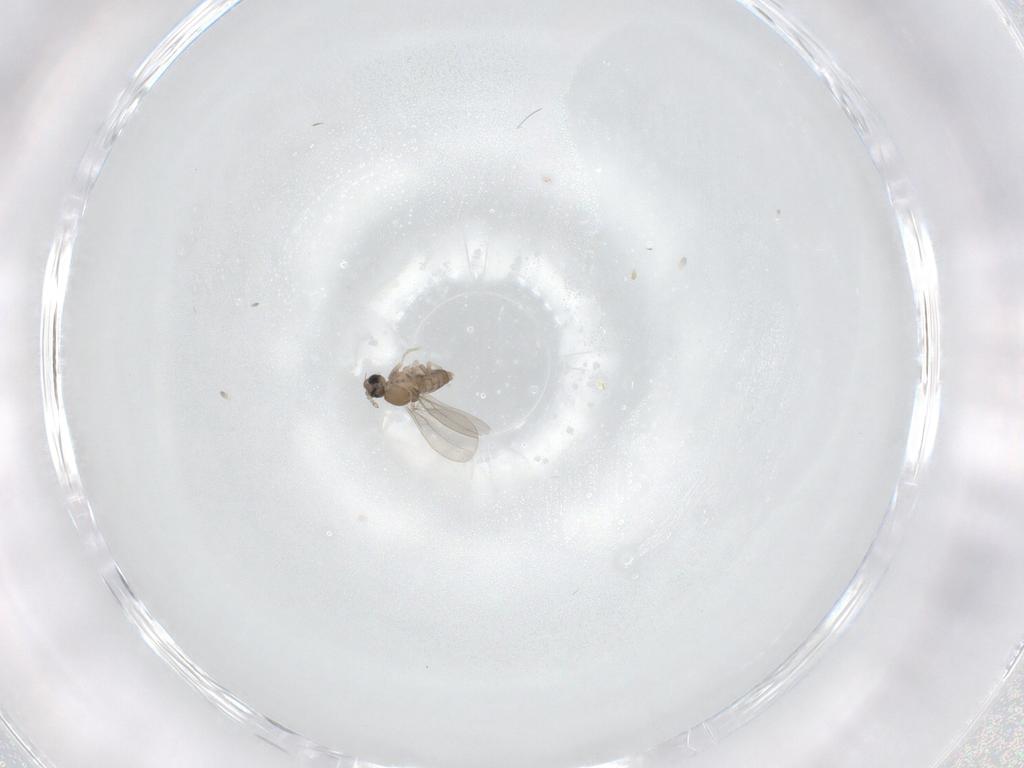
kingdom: Animalia
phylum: Arthropoda
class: Insecta
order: Diptera
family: Cecidomyiidae
